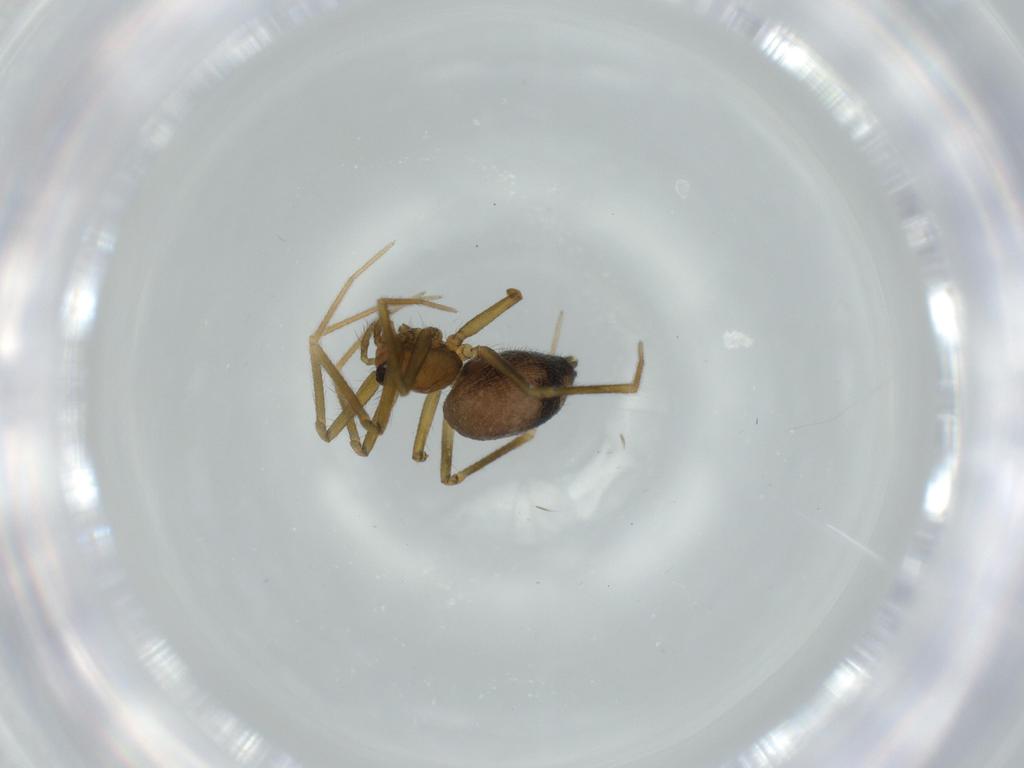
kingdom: Animalia
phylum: Arthropoda
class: Arachnida
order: Araneae
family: Linyphiidae
